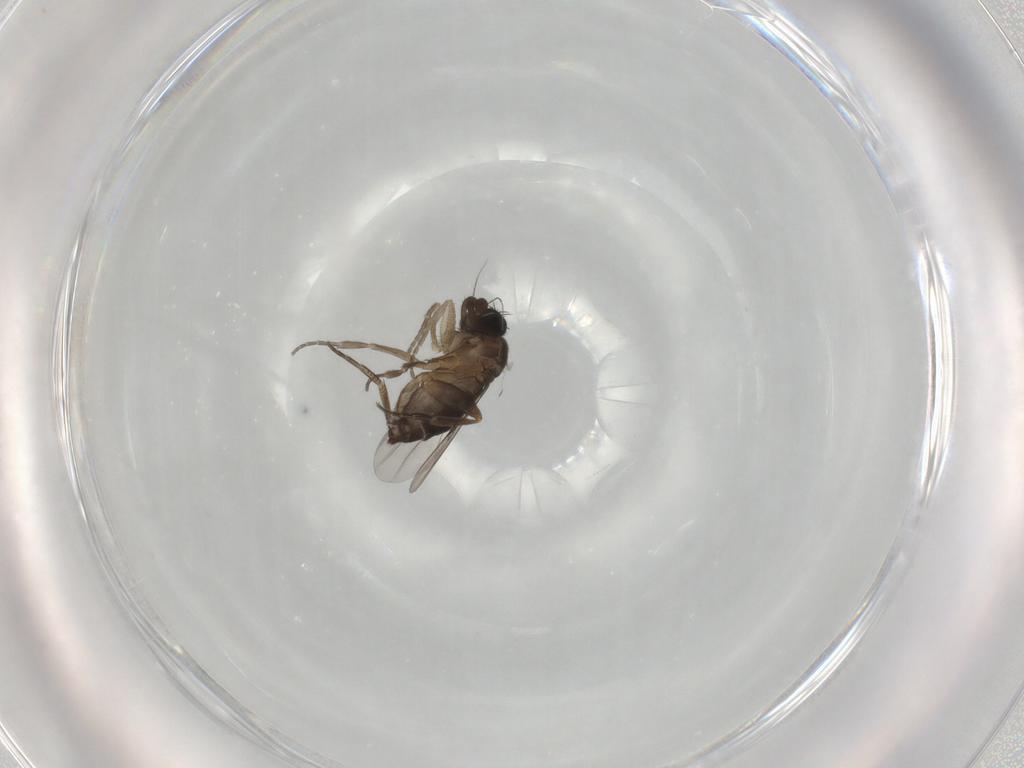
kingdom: Animalia
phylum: Arthropoda
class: Insecta
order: Diptera
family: Phoridae
